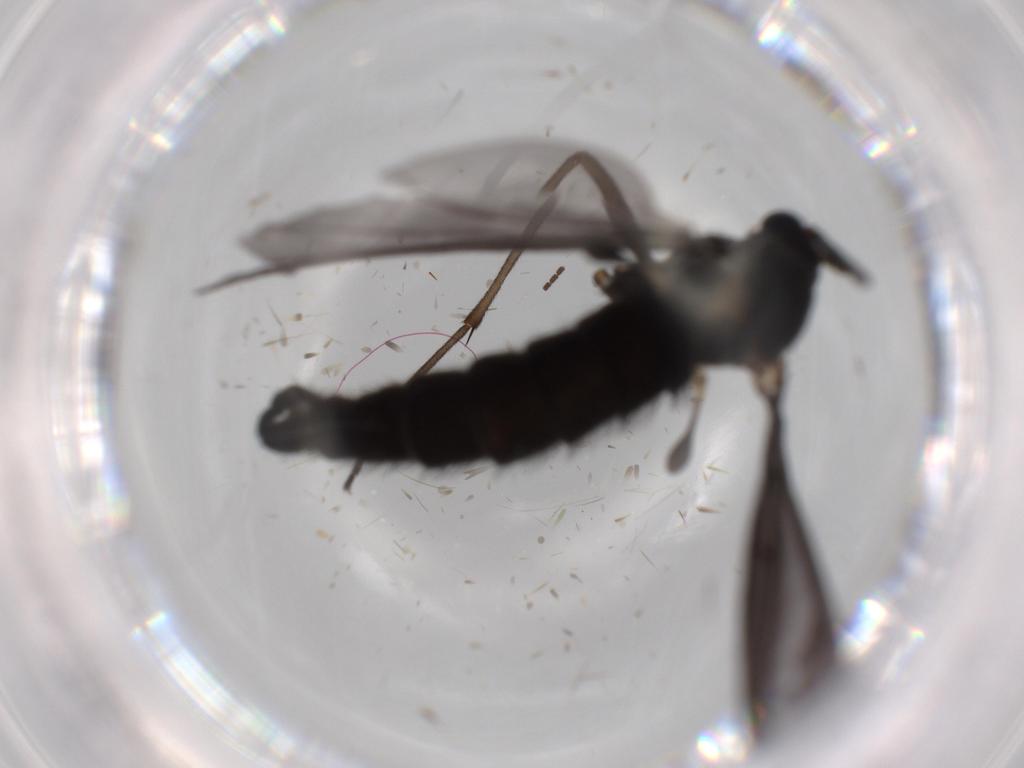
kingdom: Animalia
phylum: Arthropoda
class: Insecta
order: Diptera
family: Sciaridae
